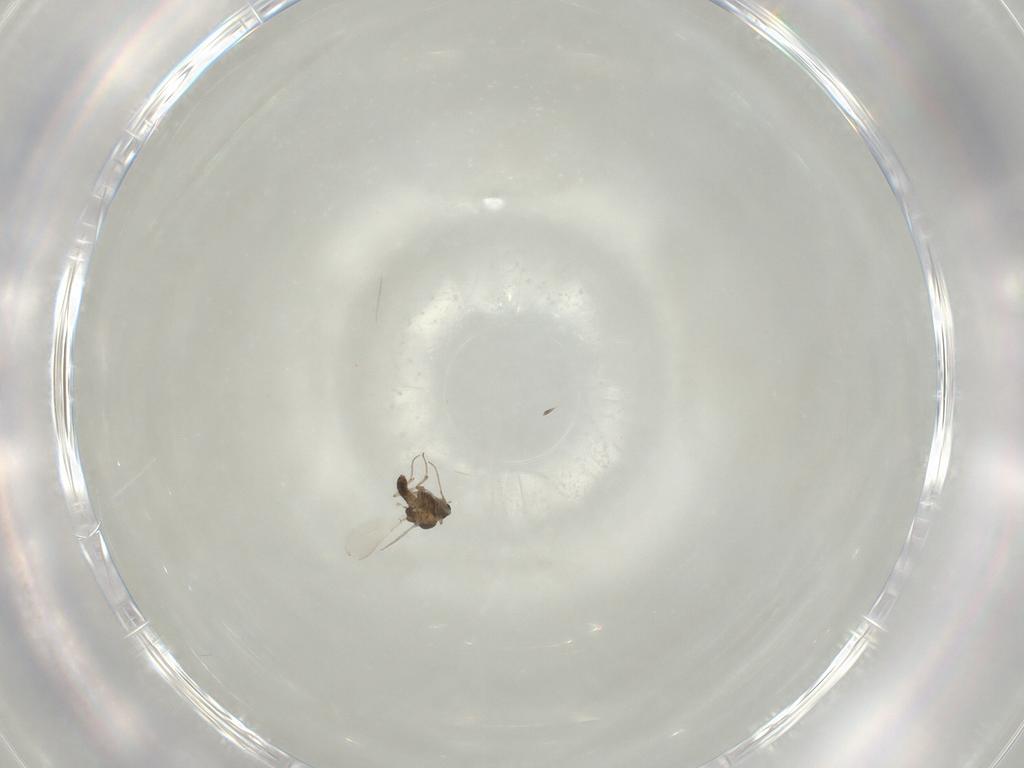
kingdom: Animalia
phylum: Arthropoda
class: Insecta
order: Diptera
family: Chironomidae
